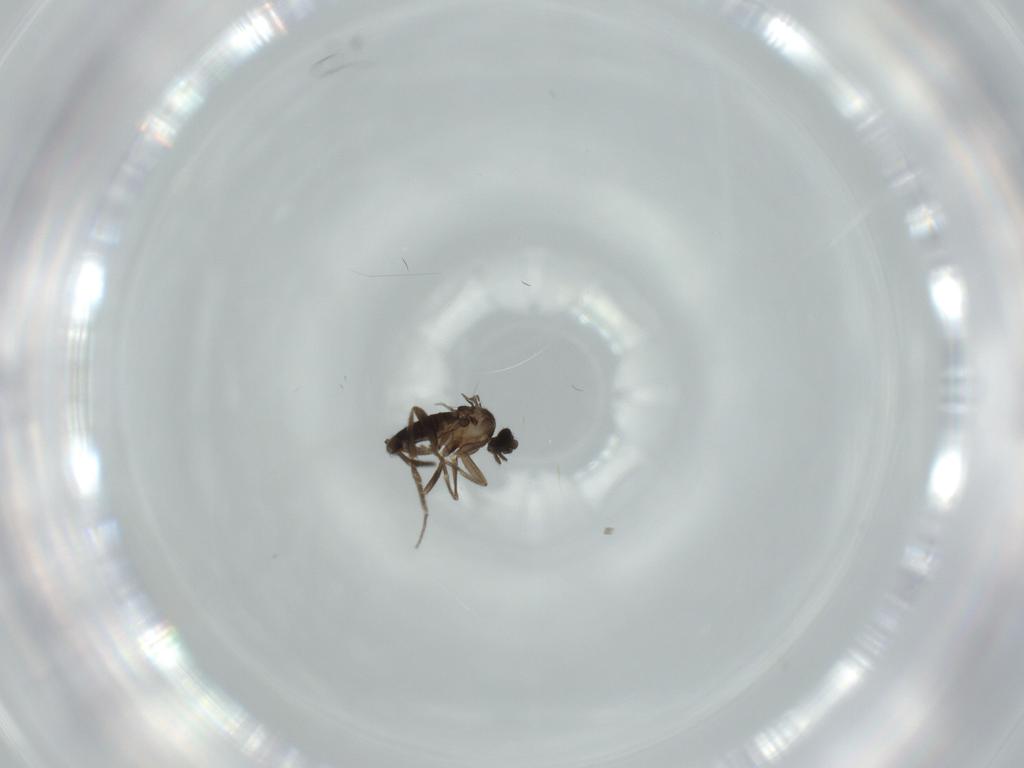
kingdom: Animalia
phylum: Arthropoda
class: Insecta
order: Diptera
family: Phoridae
